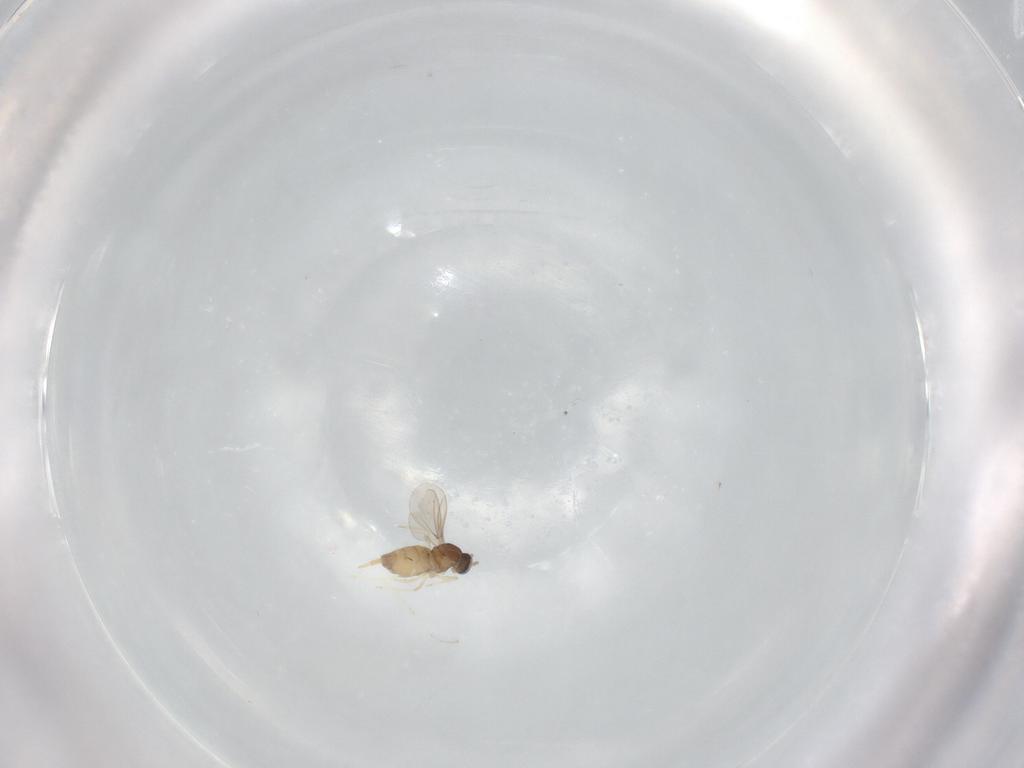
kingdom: Animalia
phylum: Arthropoda
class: Insecta
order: Diptera
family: Cecidomyiidae
